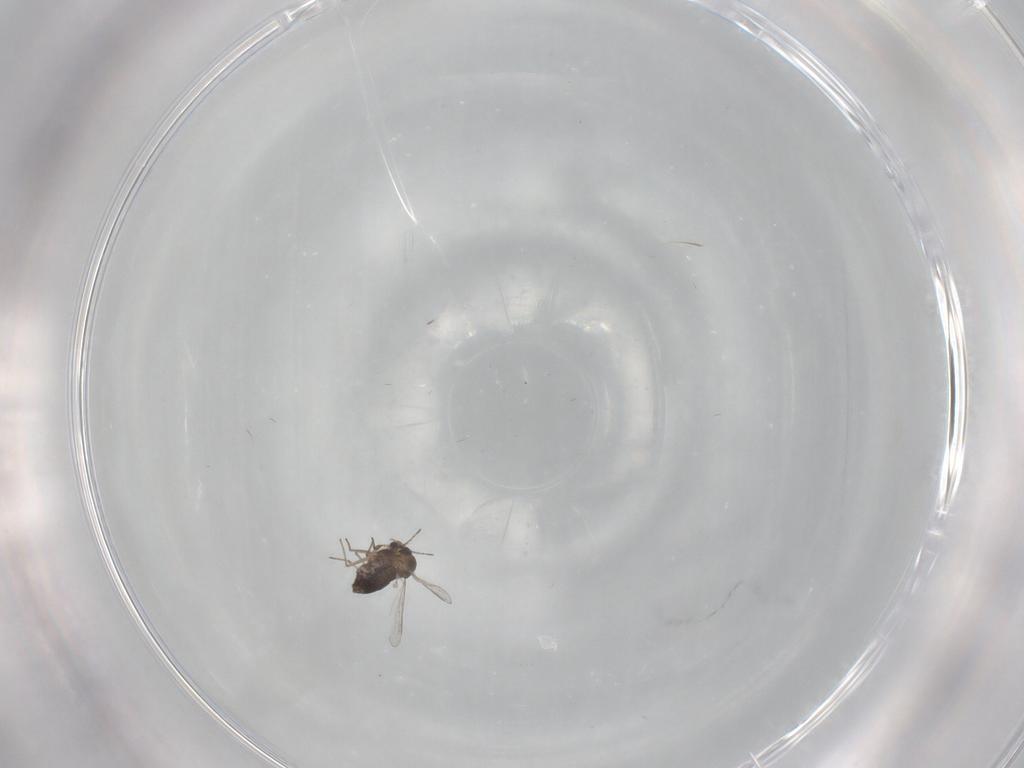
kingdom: Animalia
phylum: Arthropoda
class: Insecta
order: Diptera
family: Chironomidae
